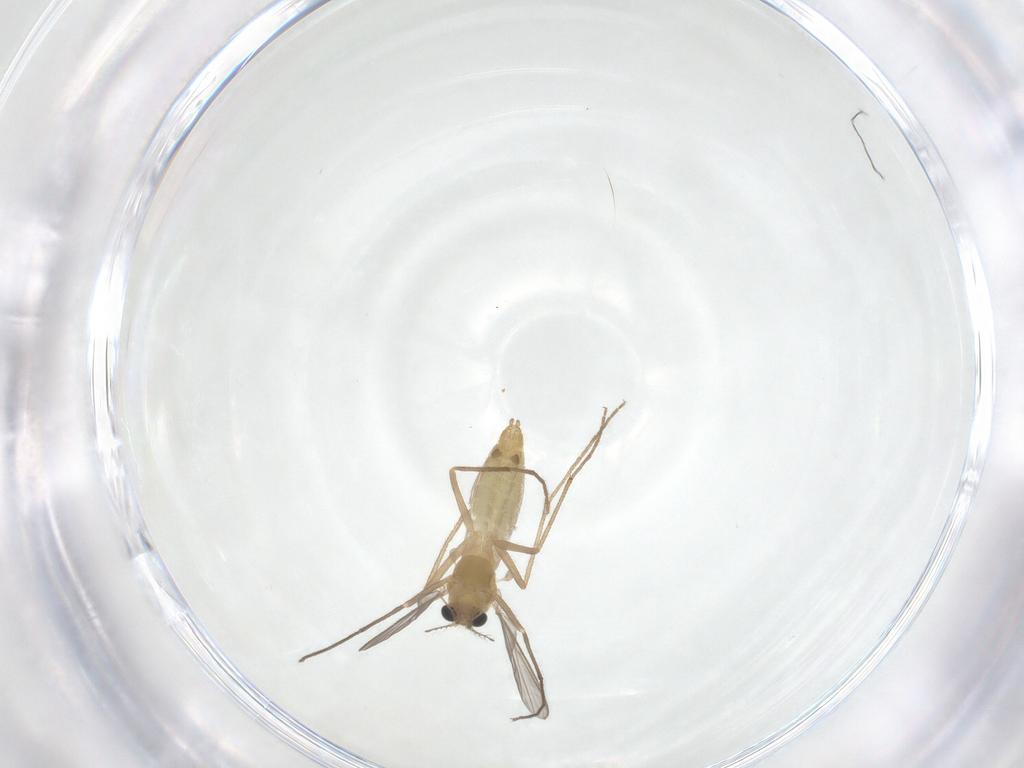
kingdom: Animalia
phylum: Arthropoda
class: Insecta
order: Diptera
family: Chironomidae
